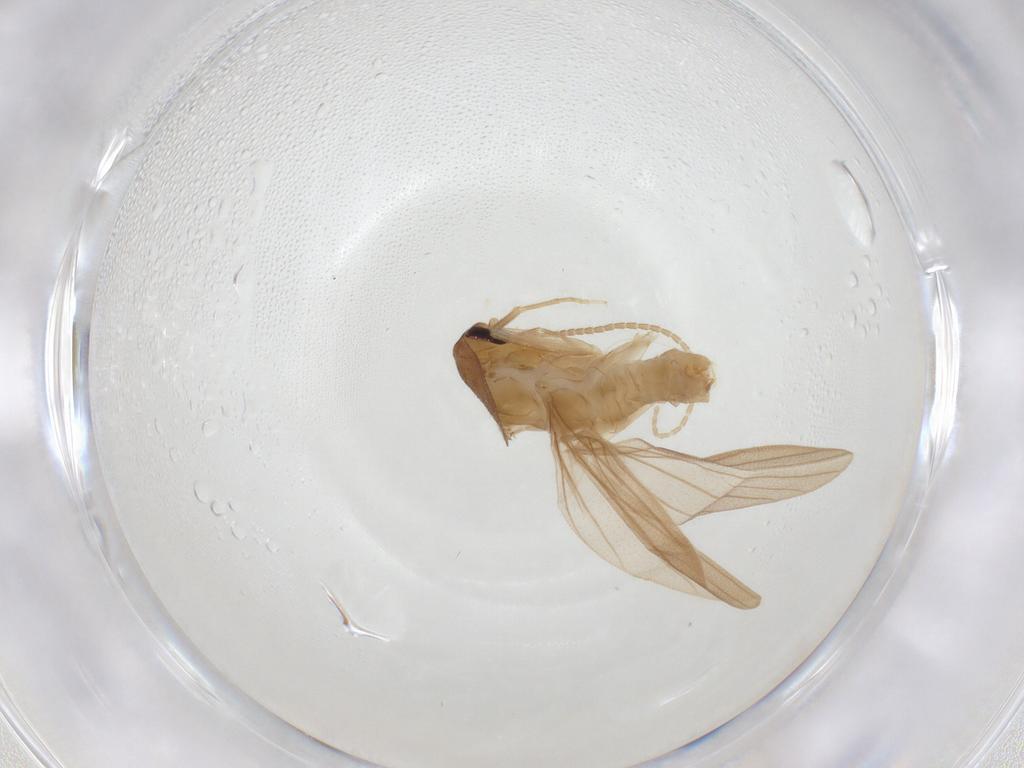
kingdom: Animalia
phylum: Arthropoda
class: Insecta
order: Blattodea
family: Nocticolidae
